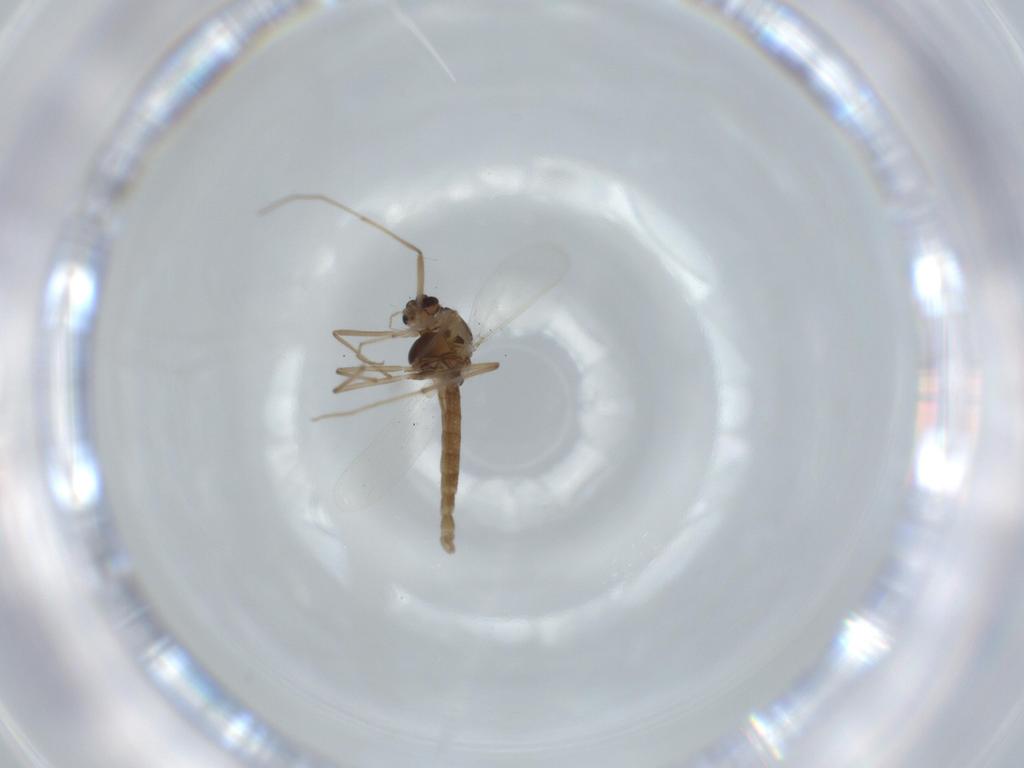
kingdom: Animalia
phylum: Arthropoda
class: Insecta
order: Diptera
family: Chironomidae
